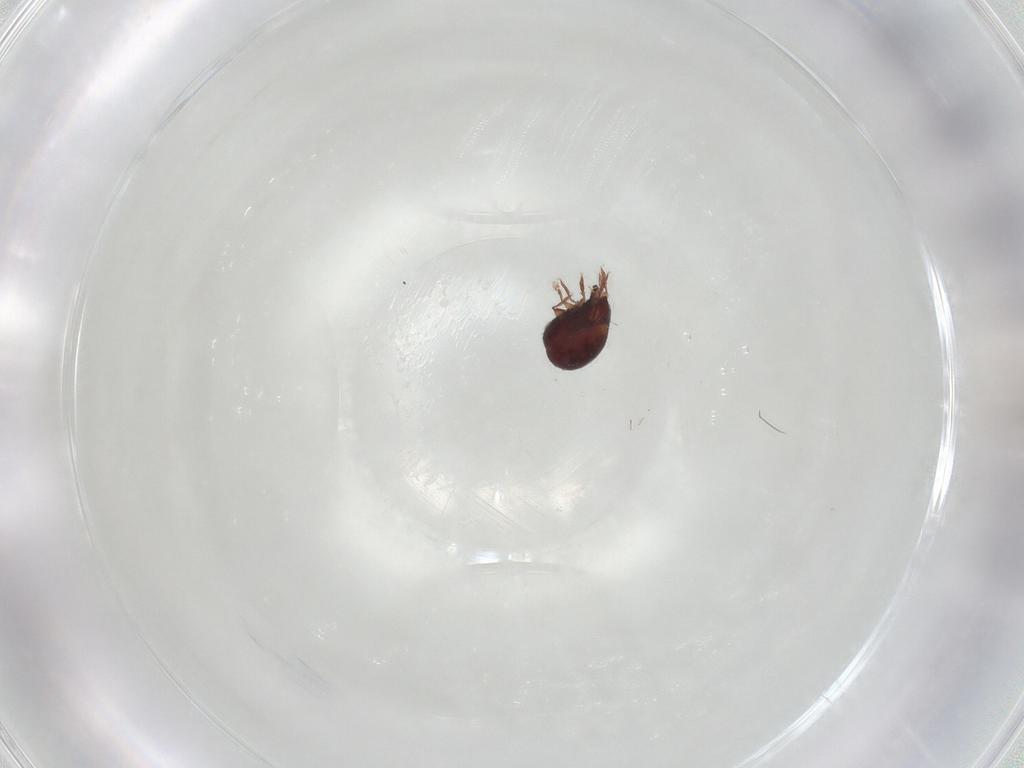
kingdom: Animalia
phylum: Arthropoda
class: Arachnida
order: Sarcoptiformes
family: Humerobatidae
